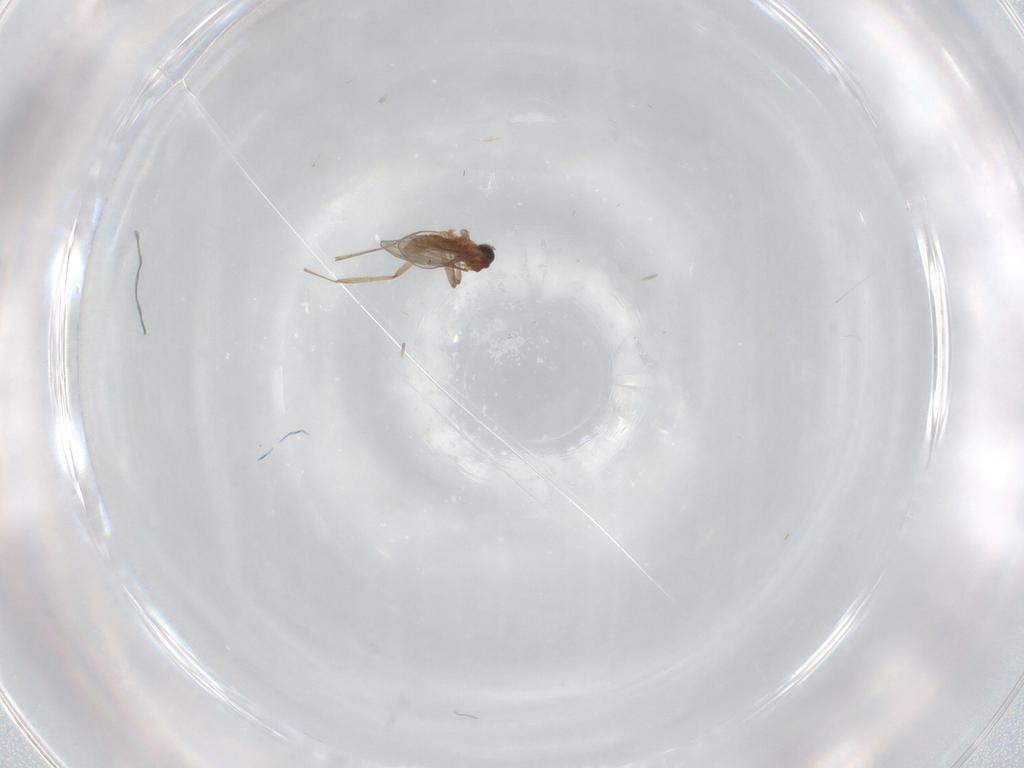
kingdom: Animalia
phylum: Arthropoda
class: Insecta
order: Diptera
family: Cecidomyiidae
